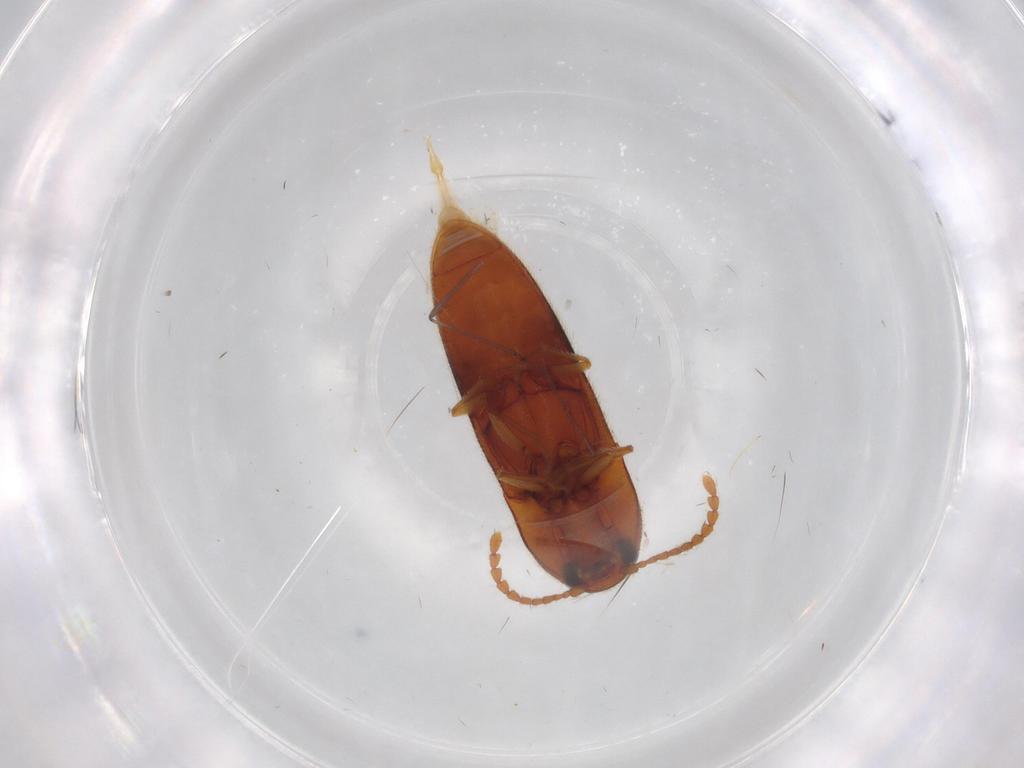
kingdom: Animalia
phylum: Arthropoda
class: Insecta
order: Coleoptera
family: Elateridae
